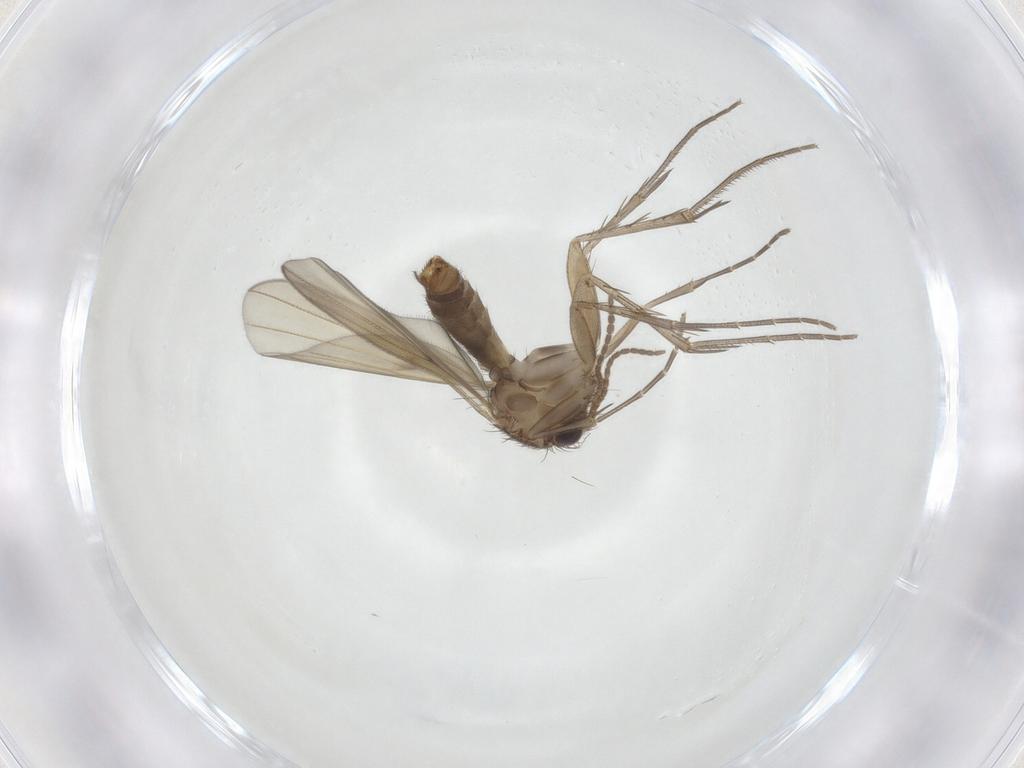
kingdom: Animalia
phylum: Arthropoda
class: Insecta
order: Diptera
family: Mycetophilidae
